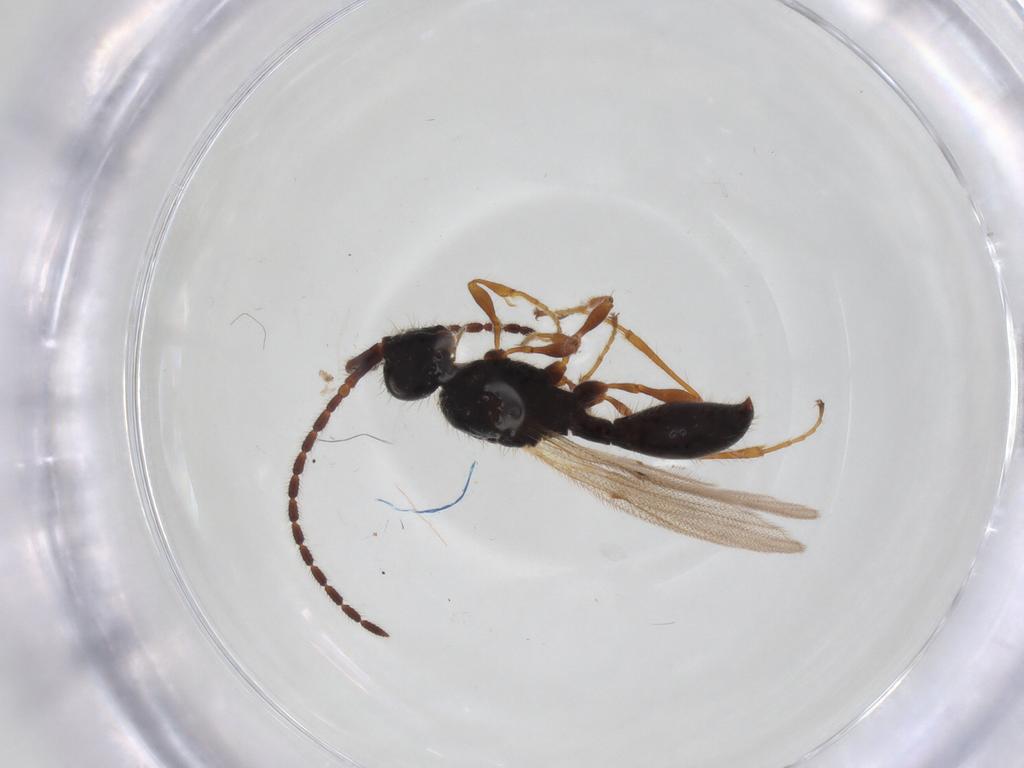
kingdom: Animalia
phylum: Arthropoda
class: Insecta
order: Hymenoptera
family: Diapriidae
